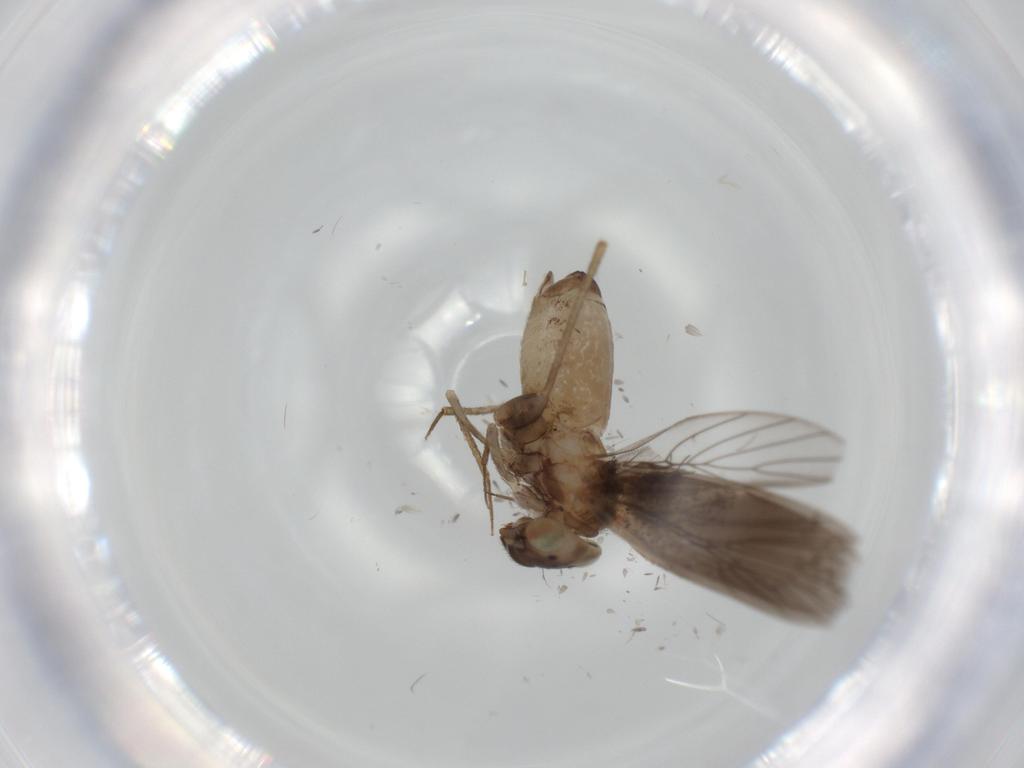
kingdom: Animalia
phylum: Arthropoda
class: Insecta
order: Psocodea
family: Lepidopsocidae
